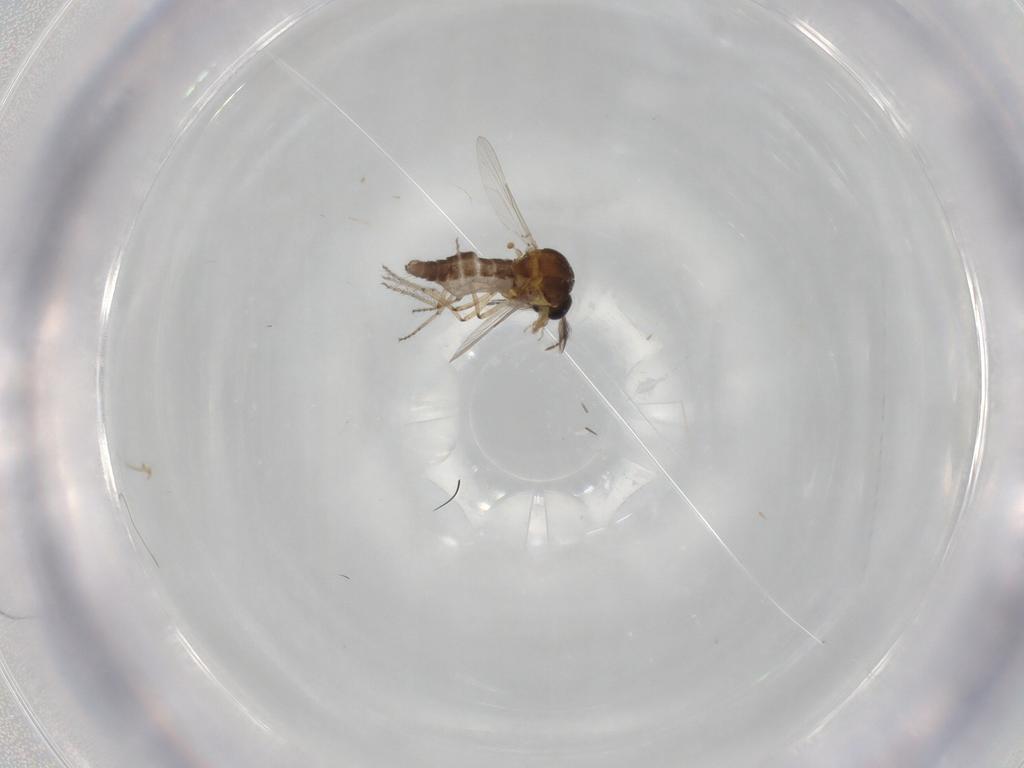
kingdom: Animalia
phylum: Arthropoda
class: Insecta
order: Diptera
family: Ceratopogonidae
